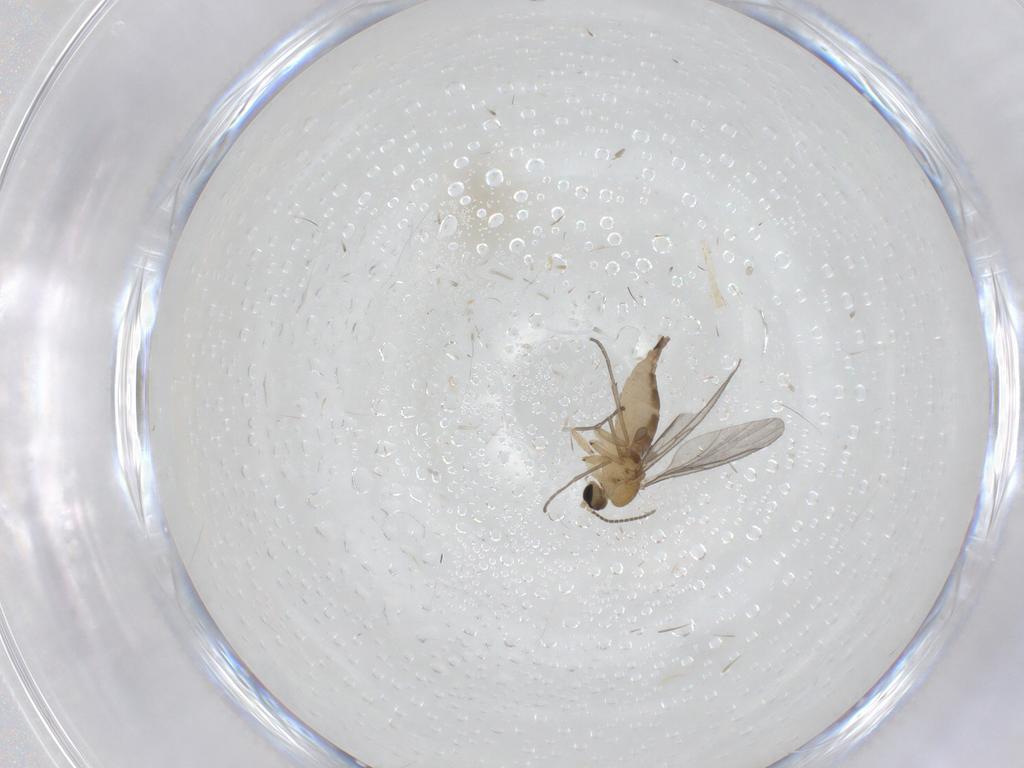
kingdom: Animalia
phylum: Arthropoda
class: Insecta
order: Diptera
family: Sciaridae
